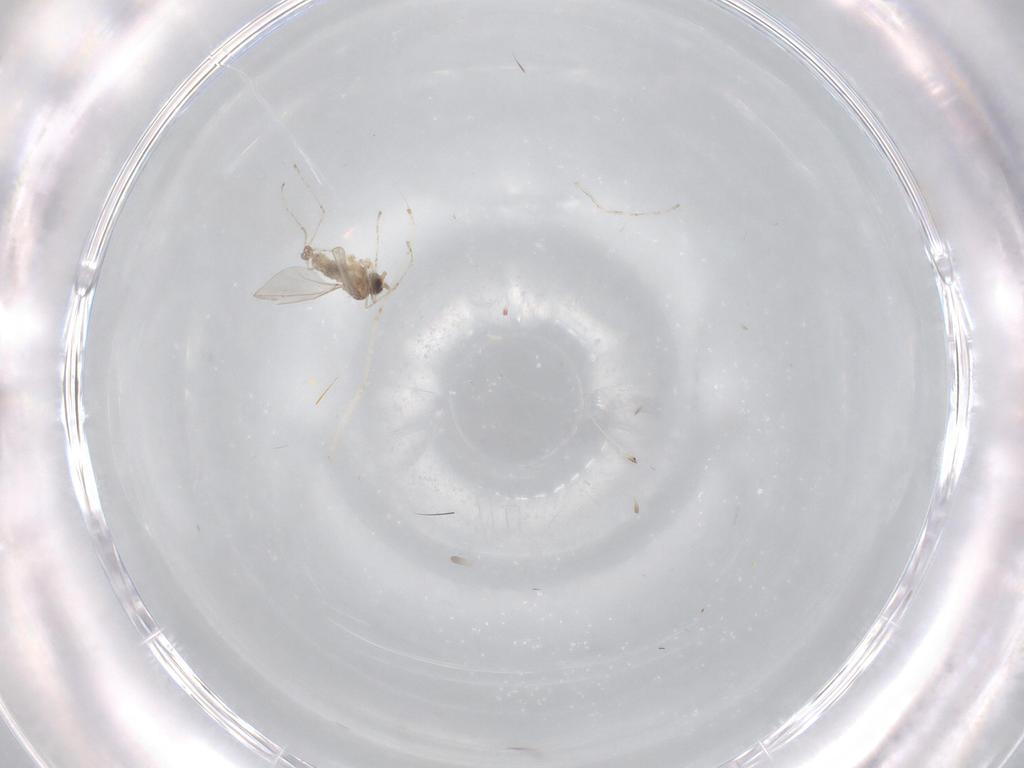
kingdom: Animalia
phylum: Arthropoda
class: Insecta
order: Diptera
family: Cecidomyiidae
